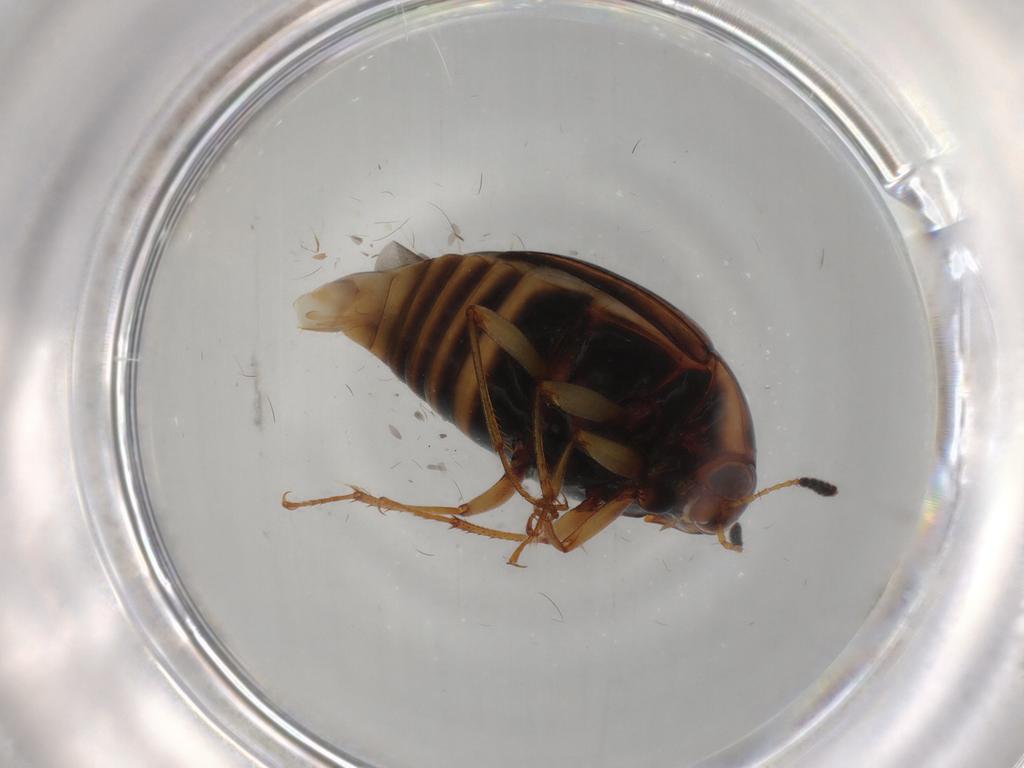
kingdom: Animalia
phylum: Arthropoda
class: Insecta
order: Coleoptera
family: Staphylinidae
